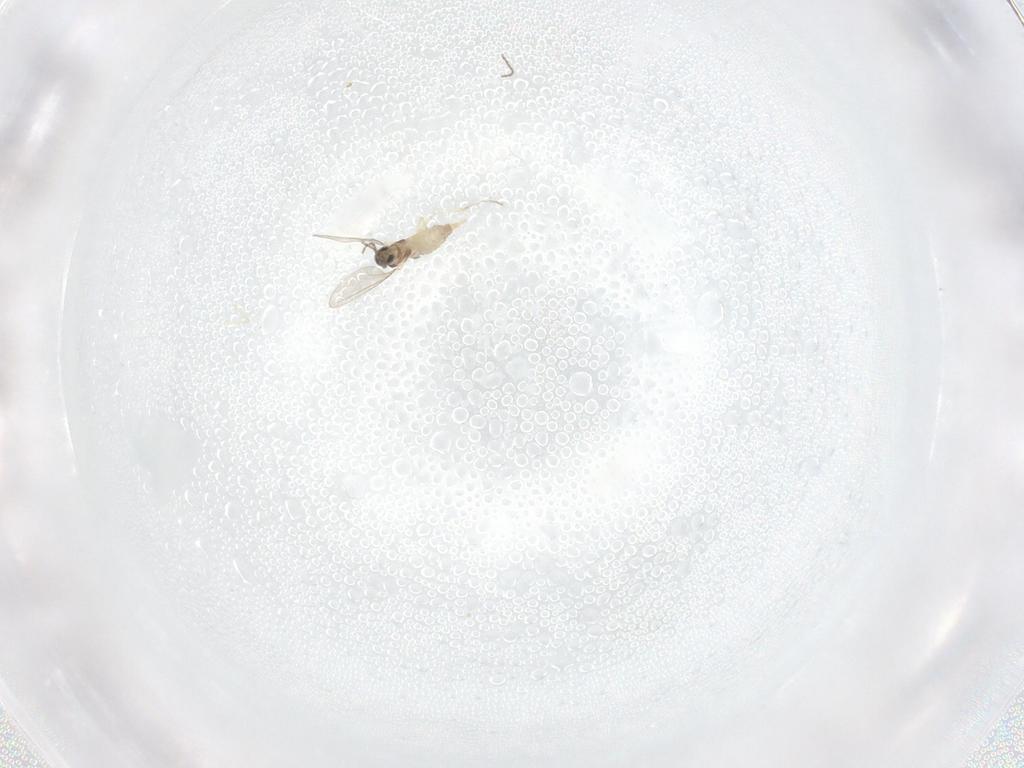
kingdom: Animalia
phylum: Arthropoda
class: Insecta
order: Diptera
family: Cecidomyiidae
